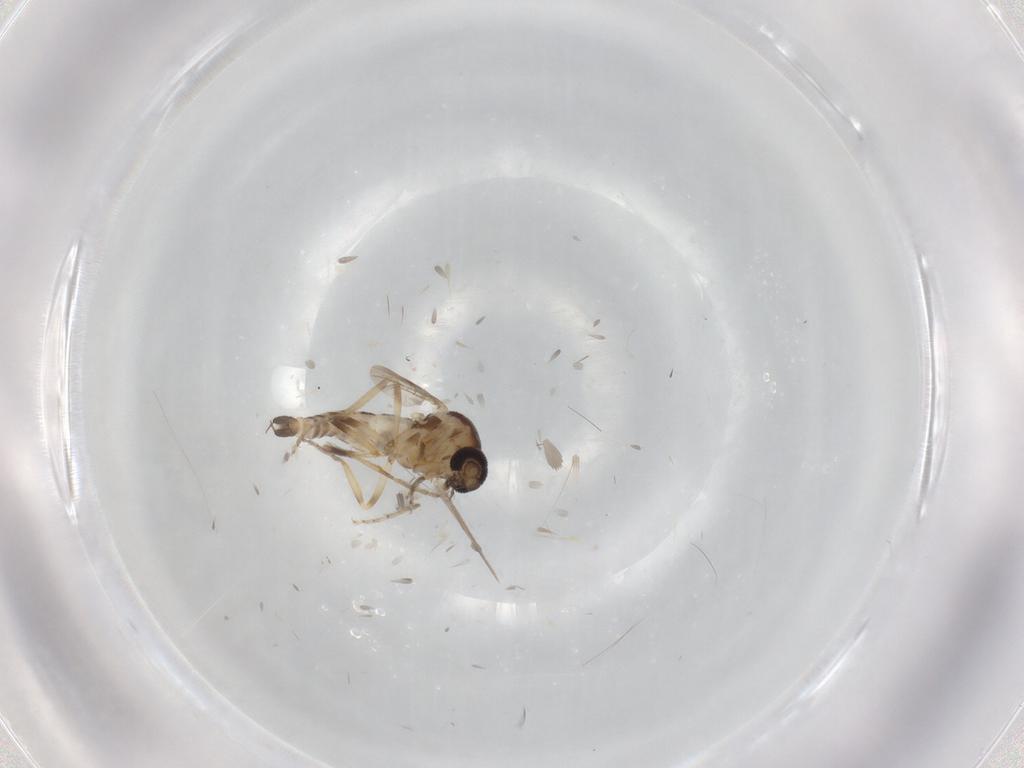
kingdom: Animalia
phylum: Arthropoda
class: Insecta
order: Diptera
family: Ceratopogonidae
